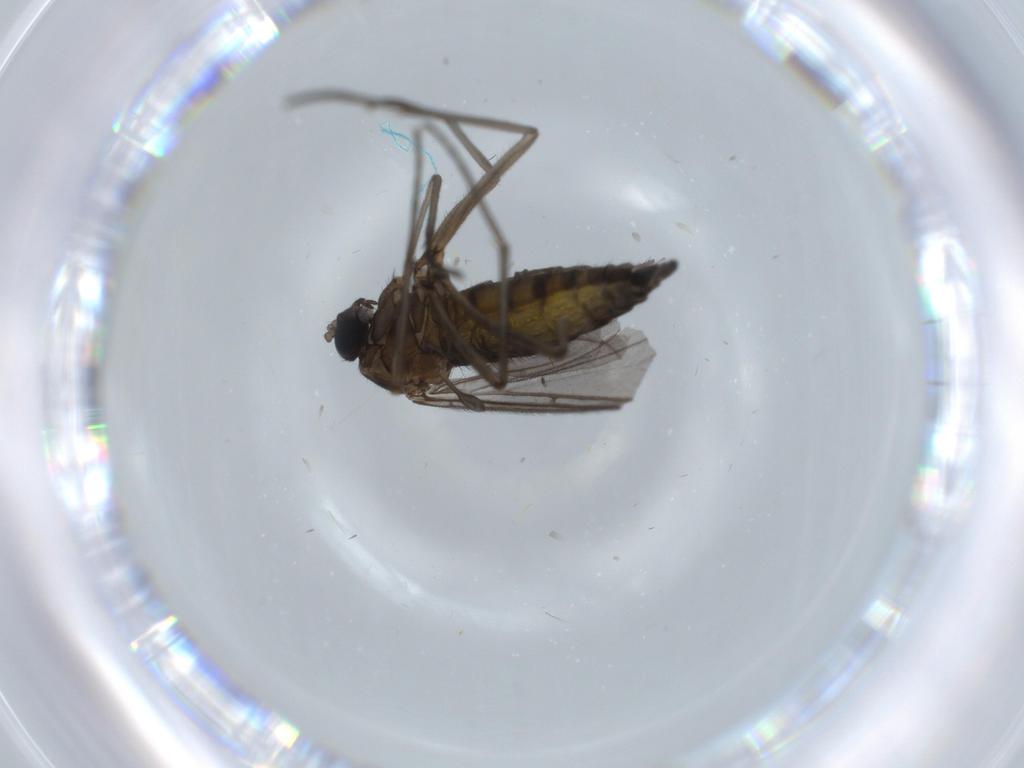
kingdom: Animalia
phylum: Arthropoda
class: Insecta
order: Diptera
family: Sciaridae
